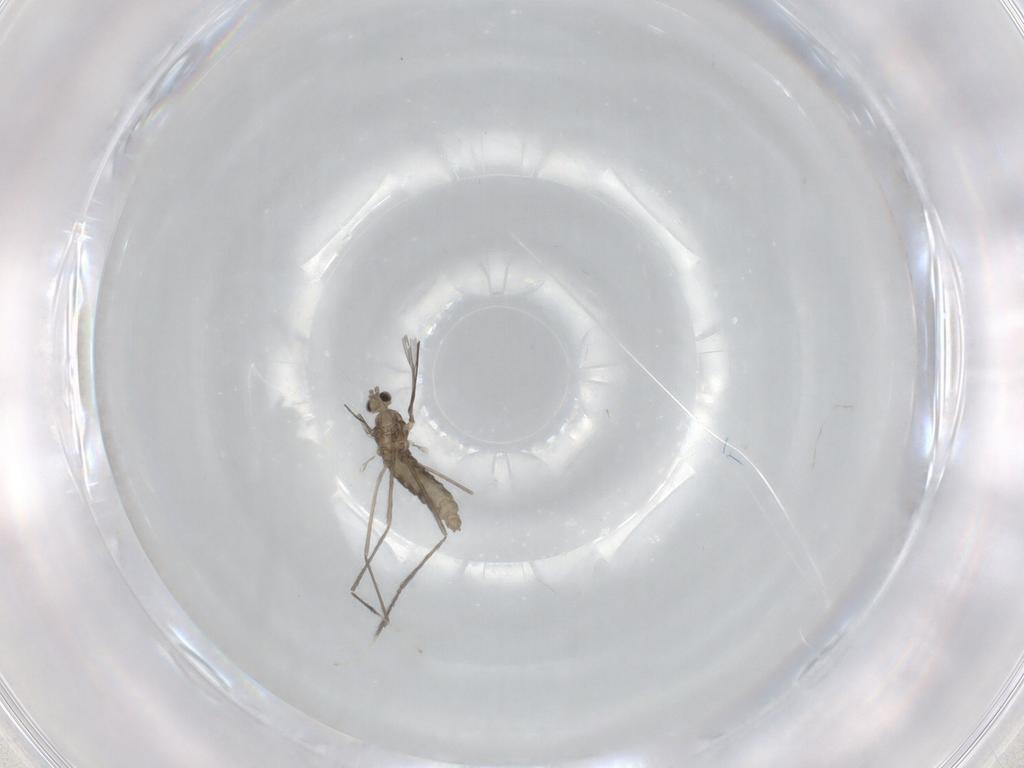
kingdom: Animalia
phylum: Arthropoda
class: Insecta
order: Diptera
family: Cecidomyiidae
